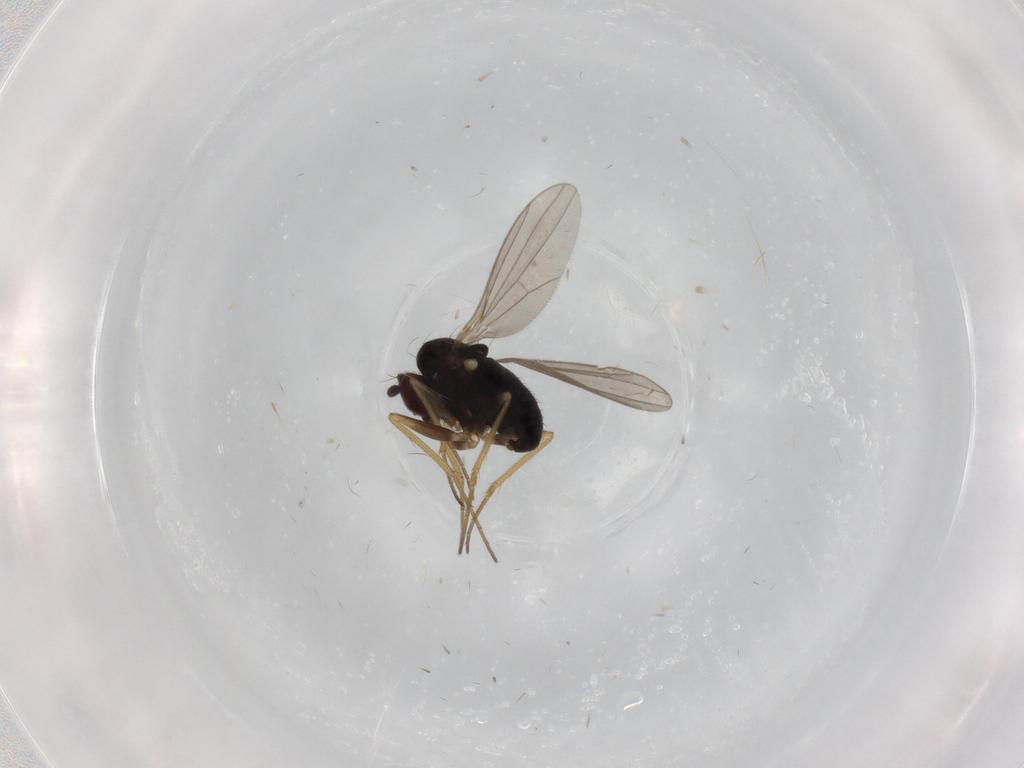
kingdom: Animalia
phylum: Arthropoda
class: Insecta
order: Diptera
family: Dolichopodidae
